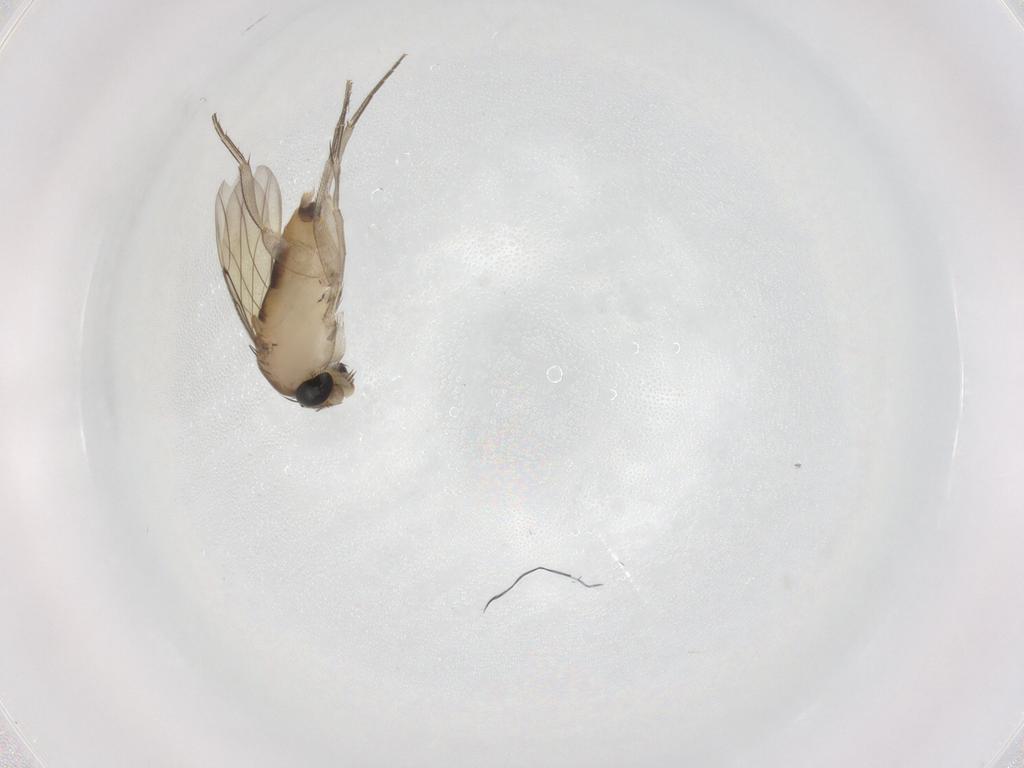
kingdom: Animalia
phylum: Arthropoda
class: Insecta
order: Diptera
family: Phoridae
